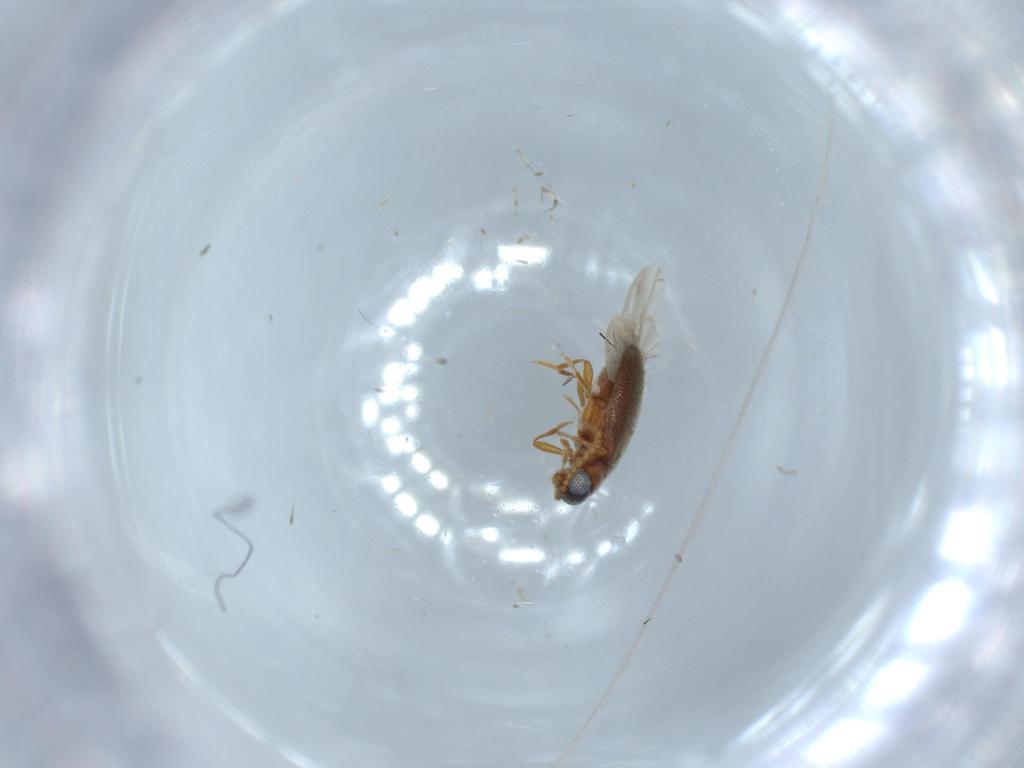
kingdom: Animalia
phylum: Arthropoda
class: Insecta
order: Coleoptera
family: Aderidae
